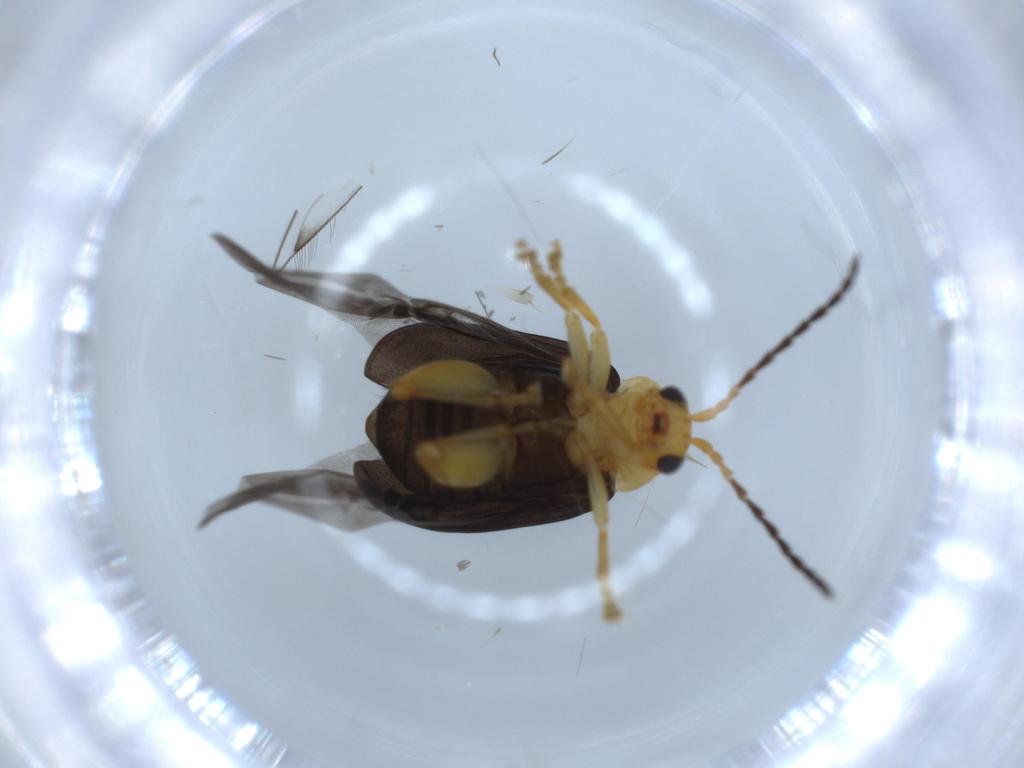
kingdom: Animalia
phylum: Arthropoda
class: Insecta
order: Coleoptera
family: Chrysomelidae
